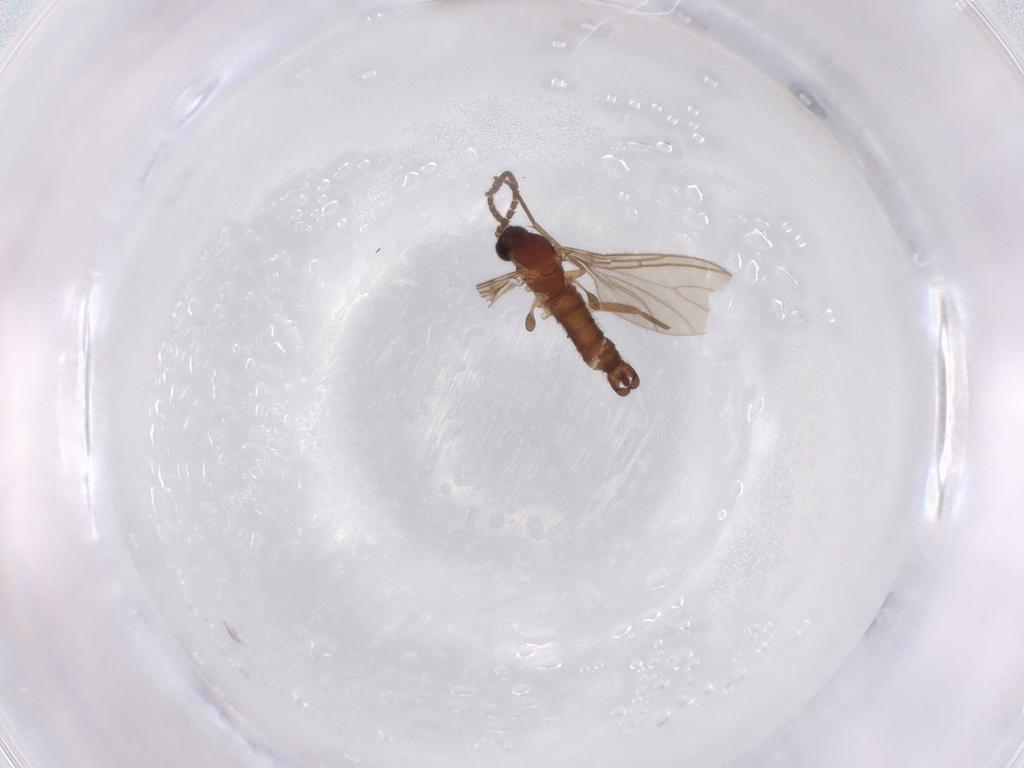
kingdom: Animalia
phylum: Arthropoda
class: Insecta
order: Diptera
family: Sciaridae
